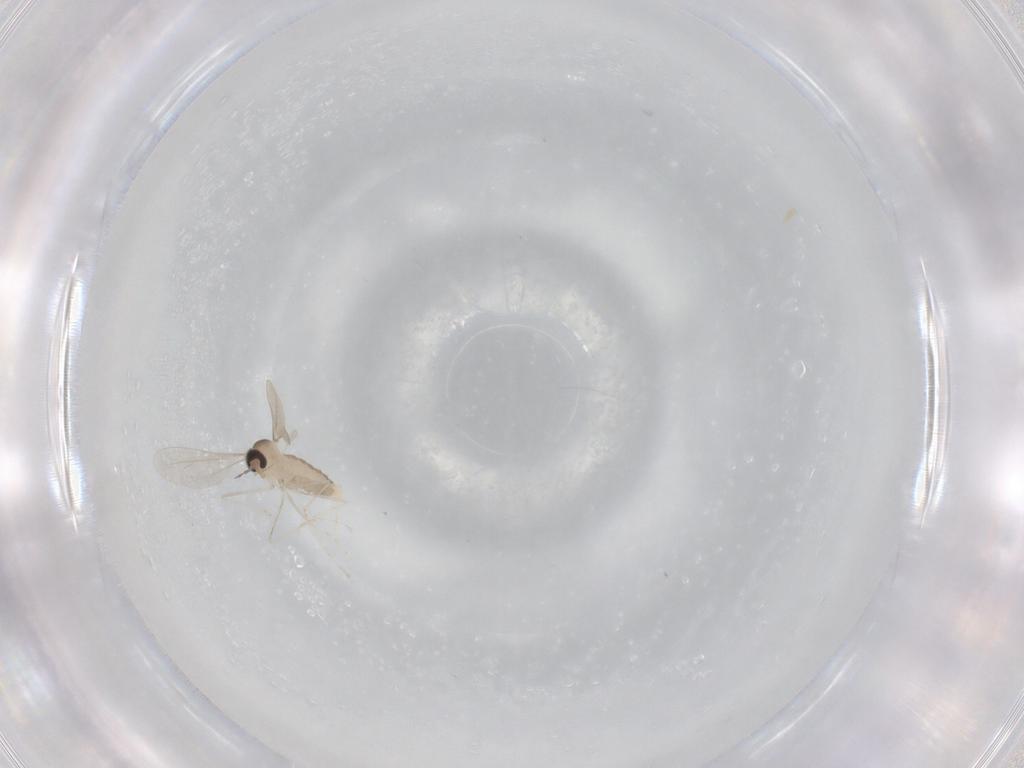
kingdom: Animalia
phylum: Arthropoda
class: Insecta
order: Diptera
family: Cecidomyiidae
